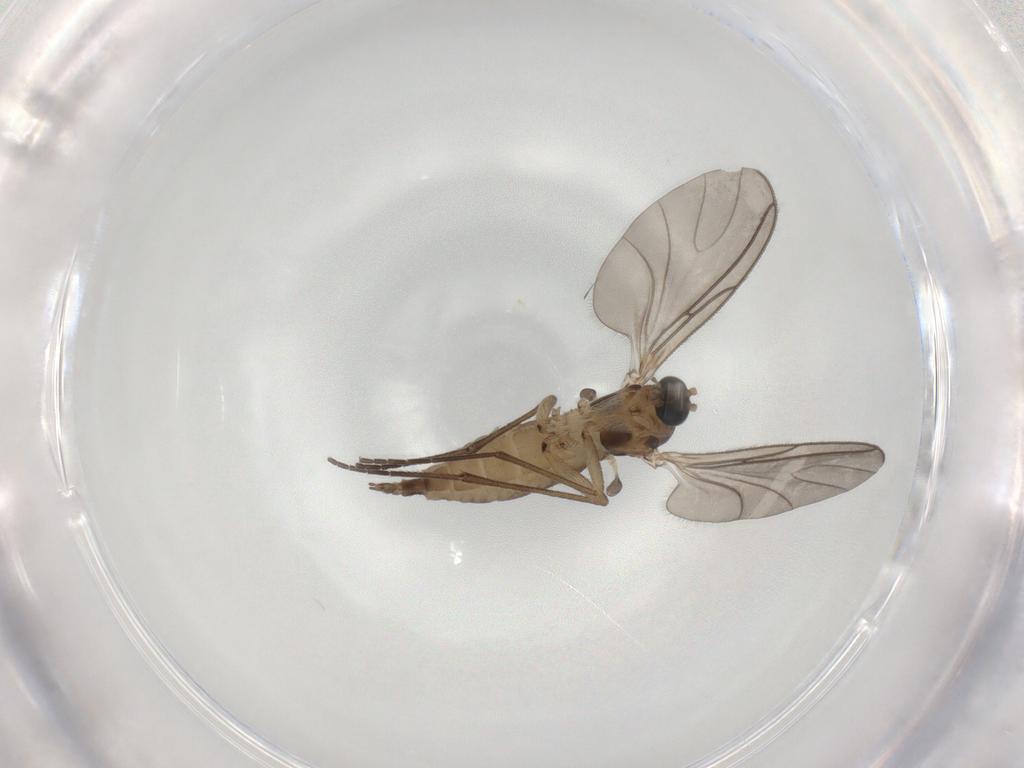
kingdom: Animalia
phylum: Arthropoda
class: Insecta
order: Diptera
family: Sciaridae
